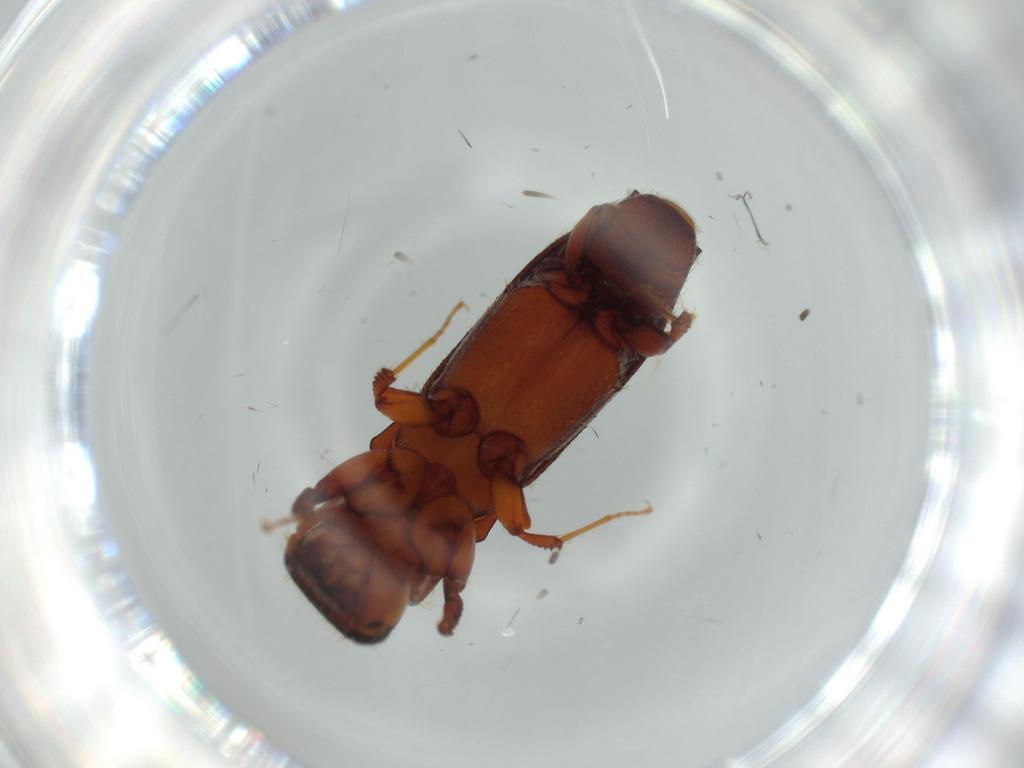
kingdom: Animalia
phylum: Arthropoda
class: Insecta
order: Coleoptera
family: Curculionidae
